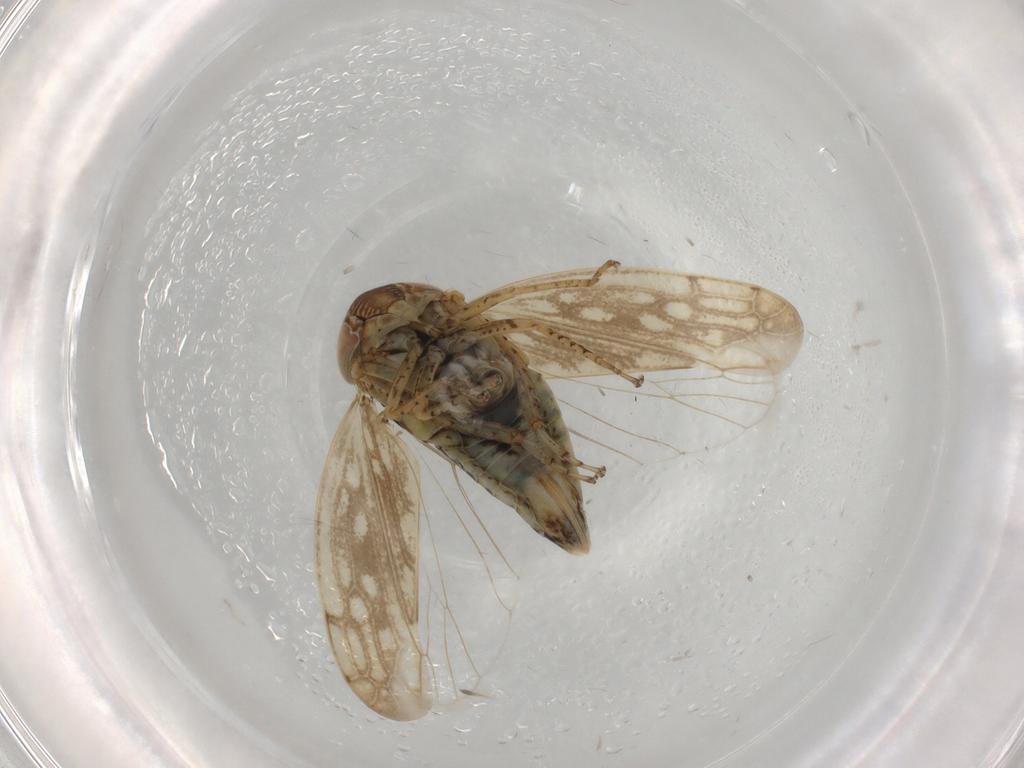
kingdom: Animalia
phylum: Arthropoda
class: Insecta
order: Hemiptera
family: Cicadellidae
